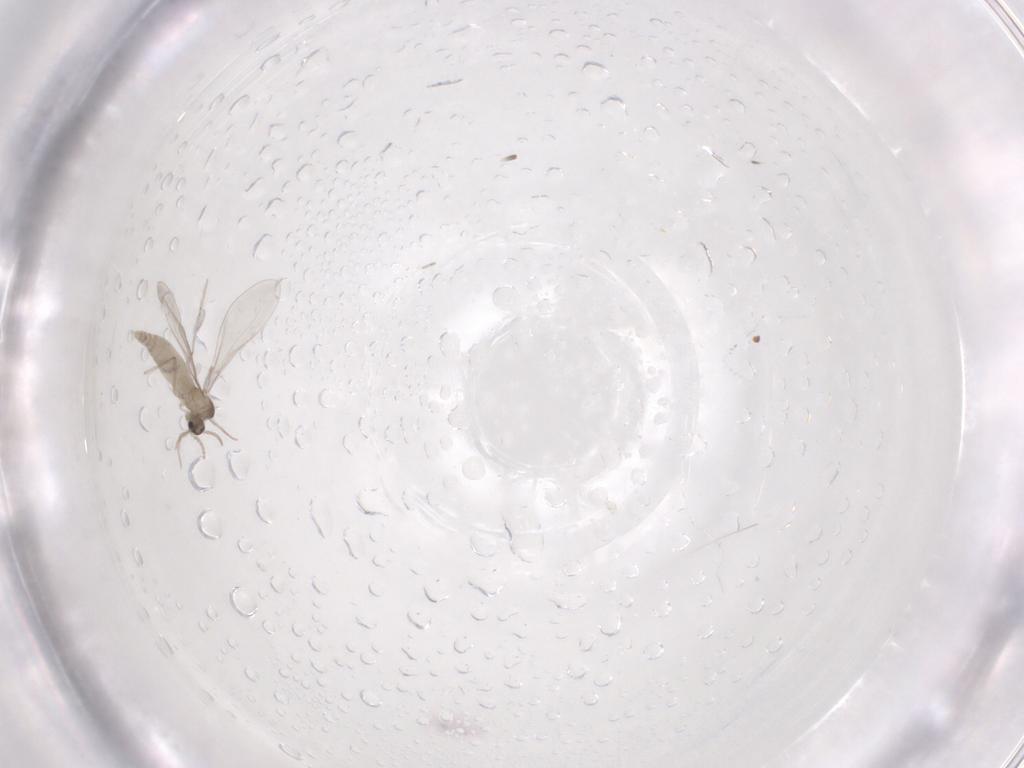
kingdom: Animalia
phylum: Arthropoda
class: Insecta
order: Diptera
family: Cecidomyiidae
